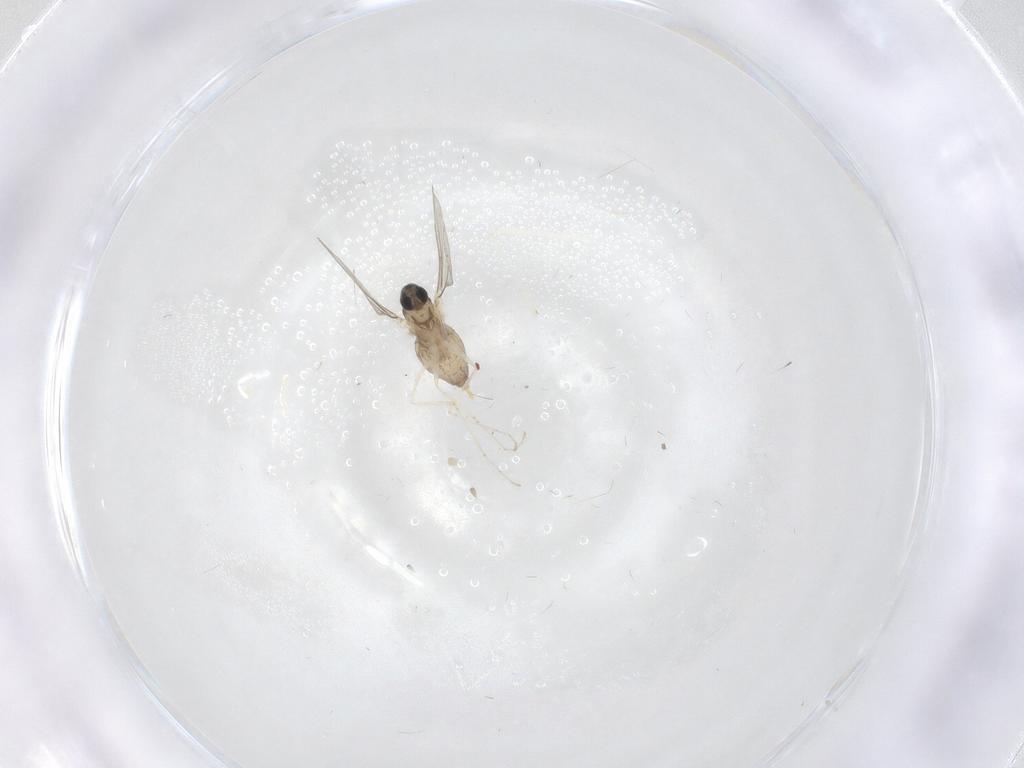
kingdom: Animalia
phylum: Arthropoda
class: Insecta
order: Diptera
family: Cecidomyiidae
